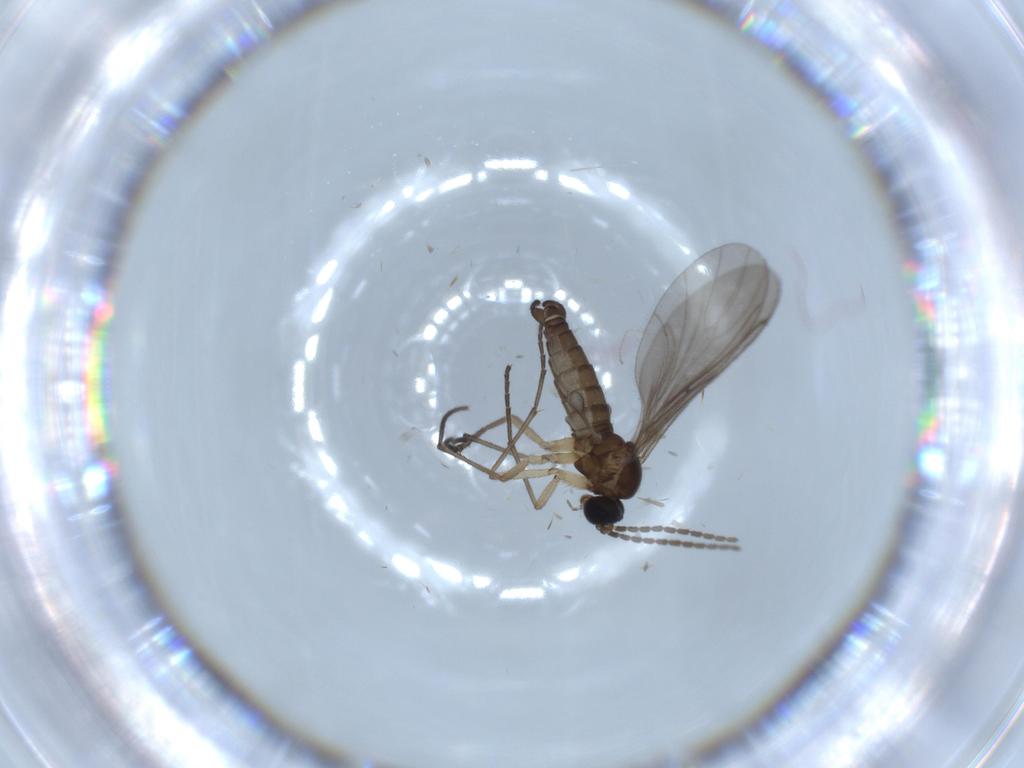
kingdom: Animalia
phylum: Arthropoda
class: Insecta
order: Diptera
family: Sciaridae
